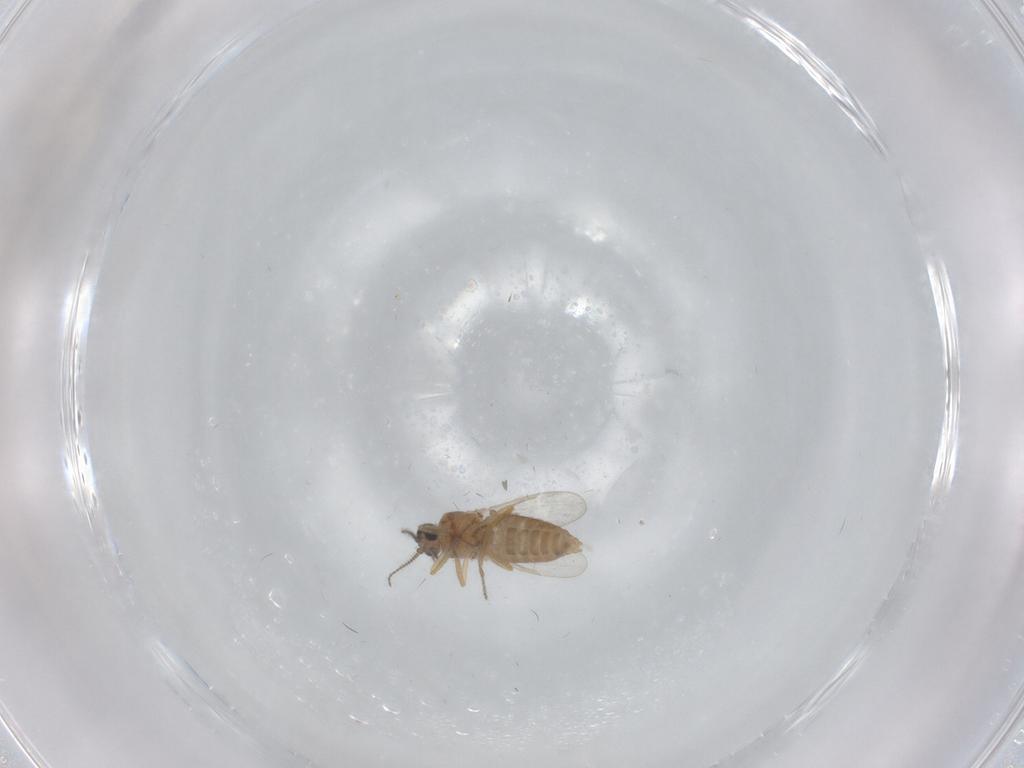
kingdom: Animalia
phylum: Arthropoda
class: Insecta
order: Diptera
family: Ceratopogonidae
